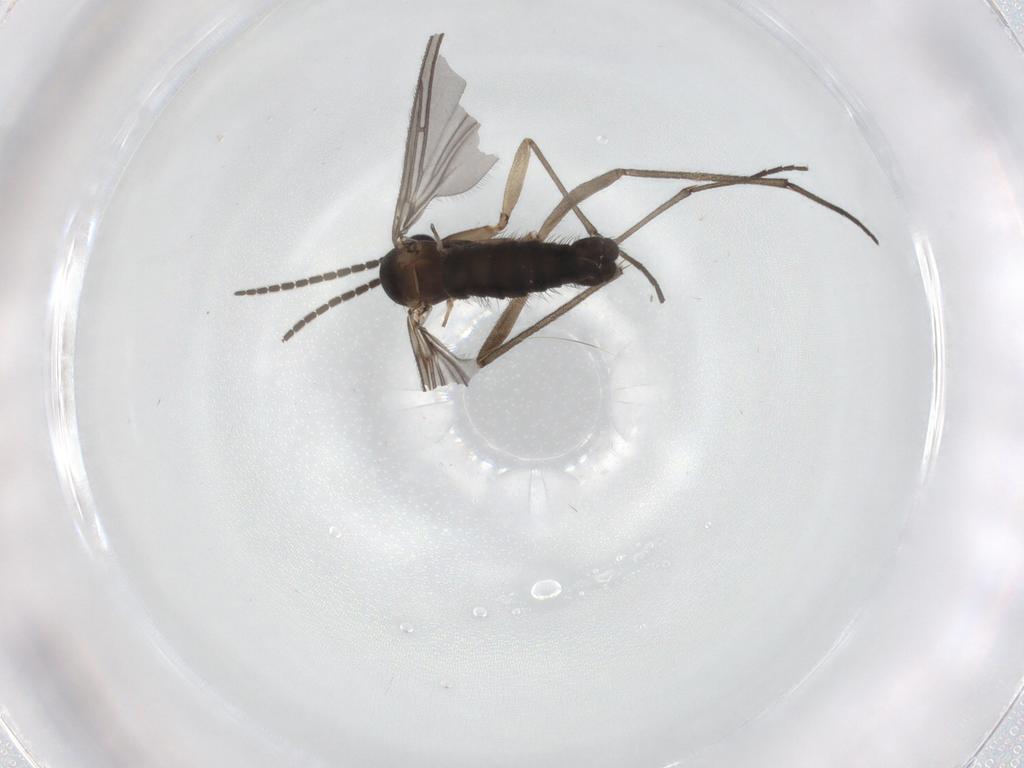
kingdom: Animalia
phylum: Arthropoda
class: Insecta
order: Diptera
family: Sciaridae
